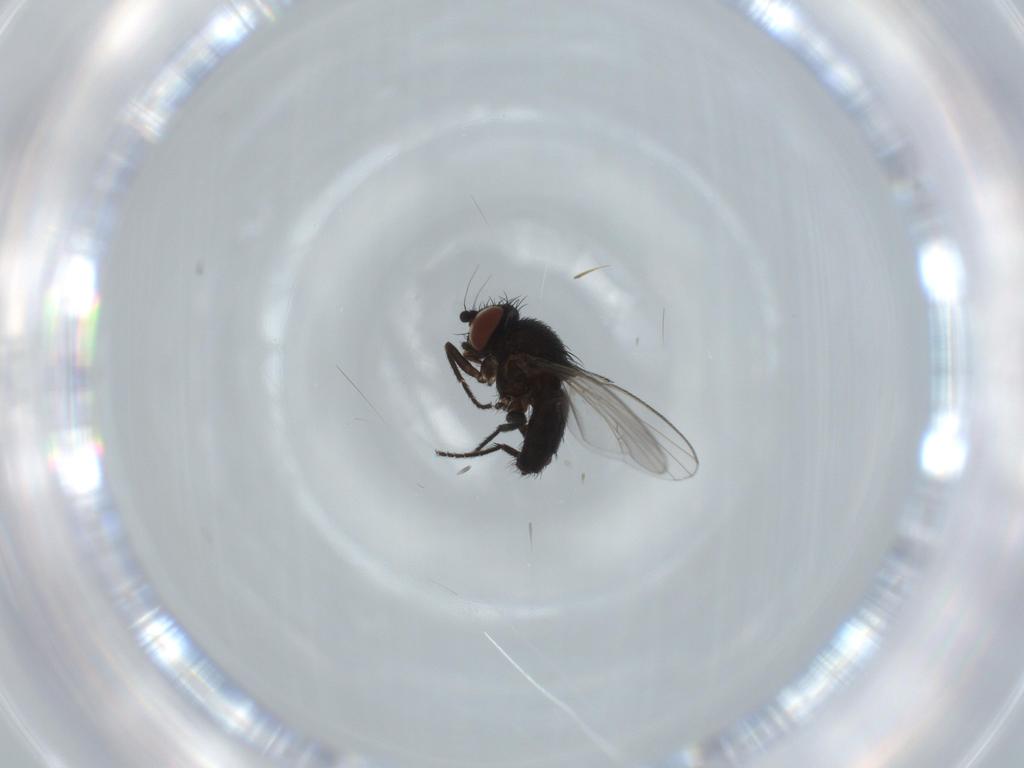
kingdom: Animalia
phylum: Arthropoda
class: Insecta
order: Diptera
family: Milichiidae
